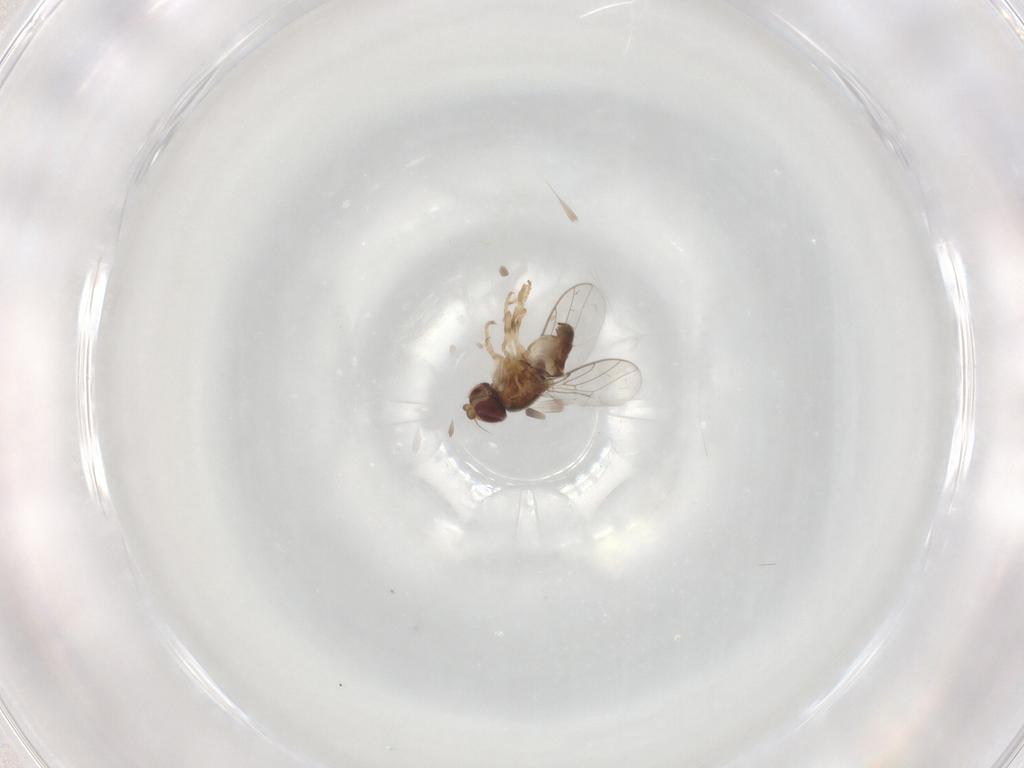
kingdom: Animalia
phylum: Arthropoda
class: Insecta
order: Diptera
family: Chloropidae
